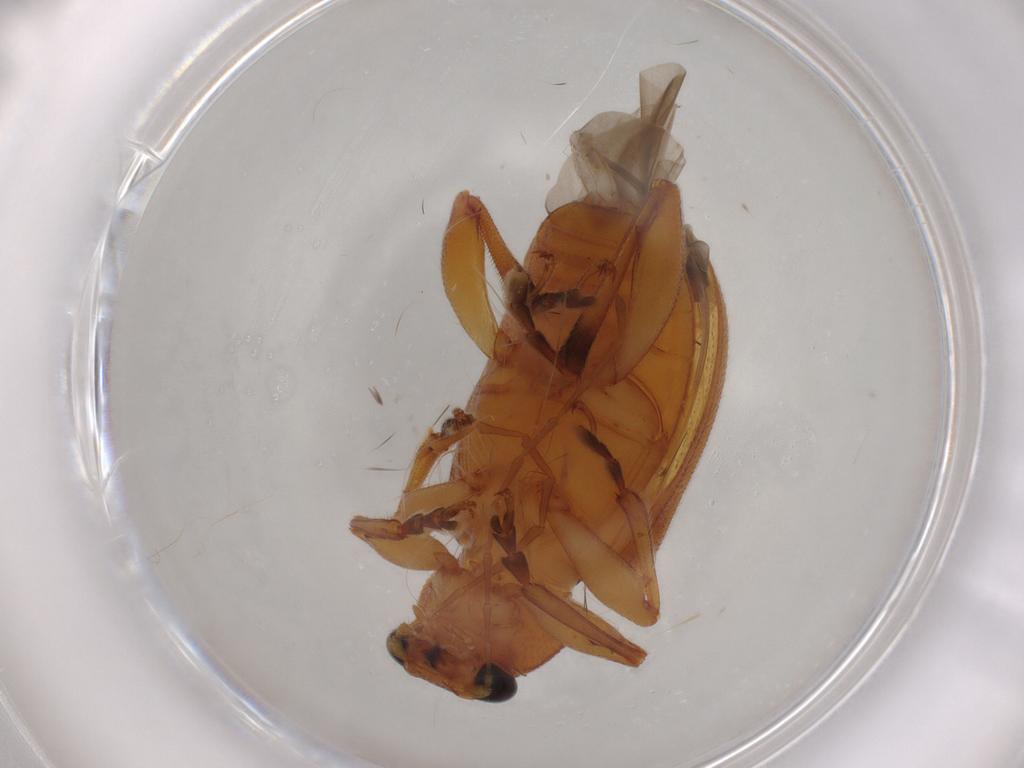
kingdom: Animalia
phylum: Arthropoda
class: Insecta
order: Coleoptera
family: Chrysomelidae
